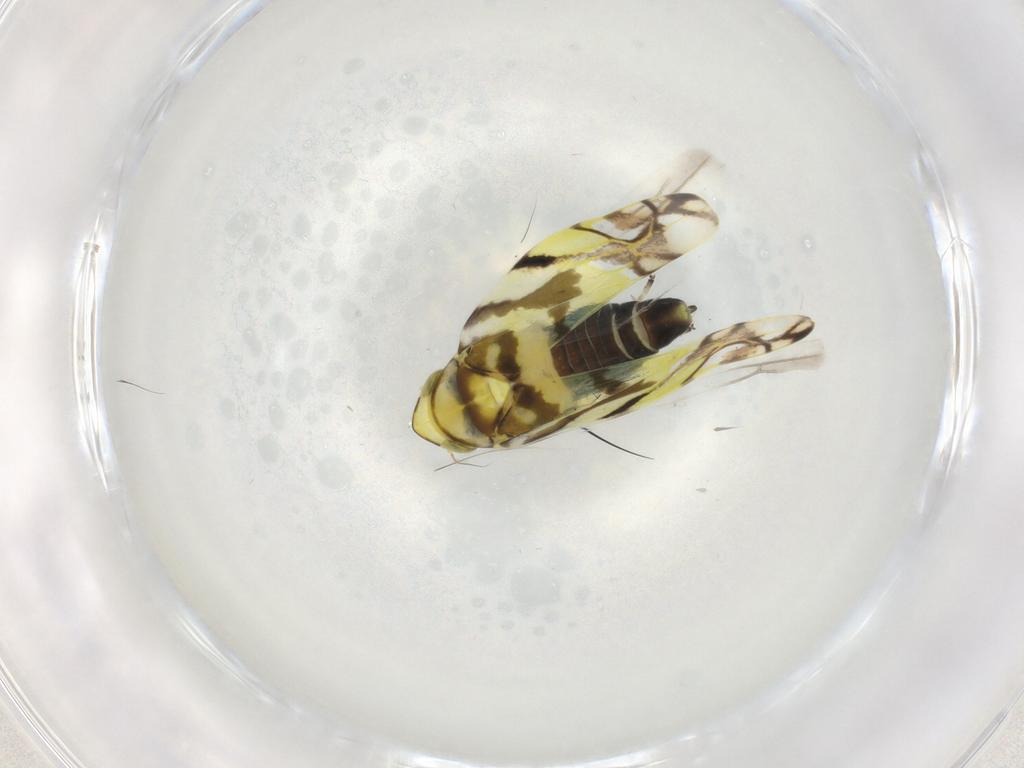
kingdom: Animalia
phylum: Arthropoda
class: Insecta
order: Hemiptera
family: Cicadellidae
